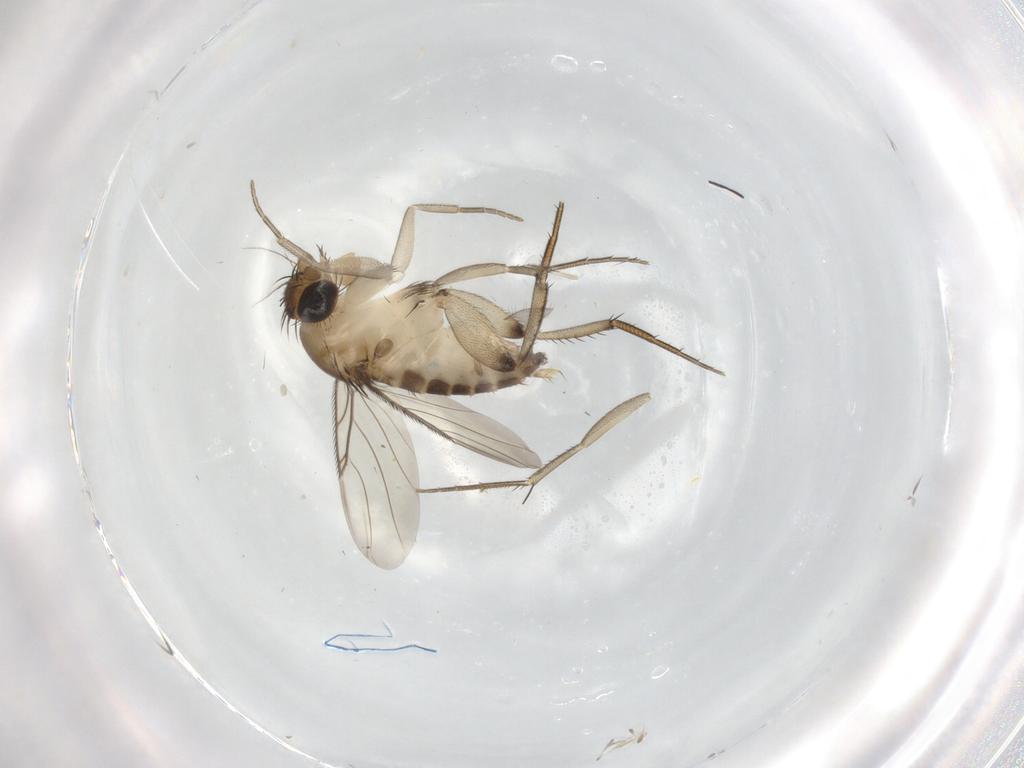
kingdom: Animalia
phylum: Arthropoda
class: Insecta
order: Diptera
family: Phoridae
